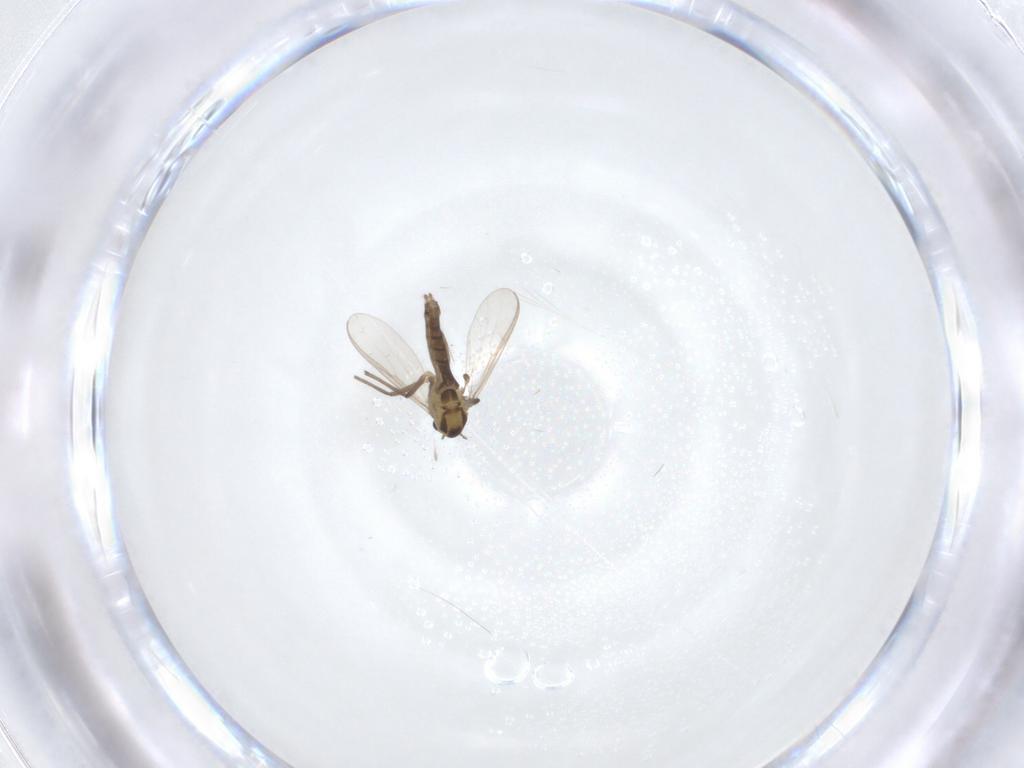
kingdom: Animalia
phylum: Arthropoda
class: Insecta
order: Diptera
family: Chironomidae
